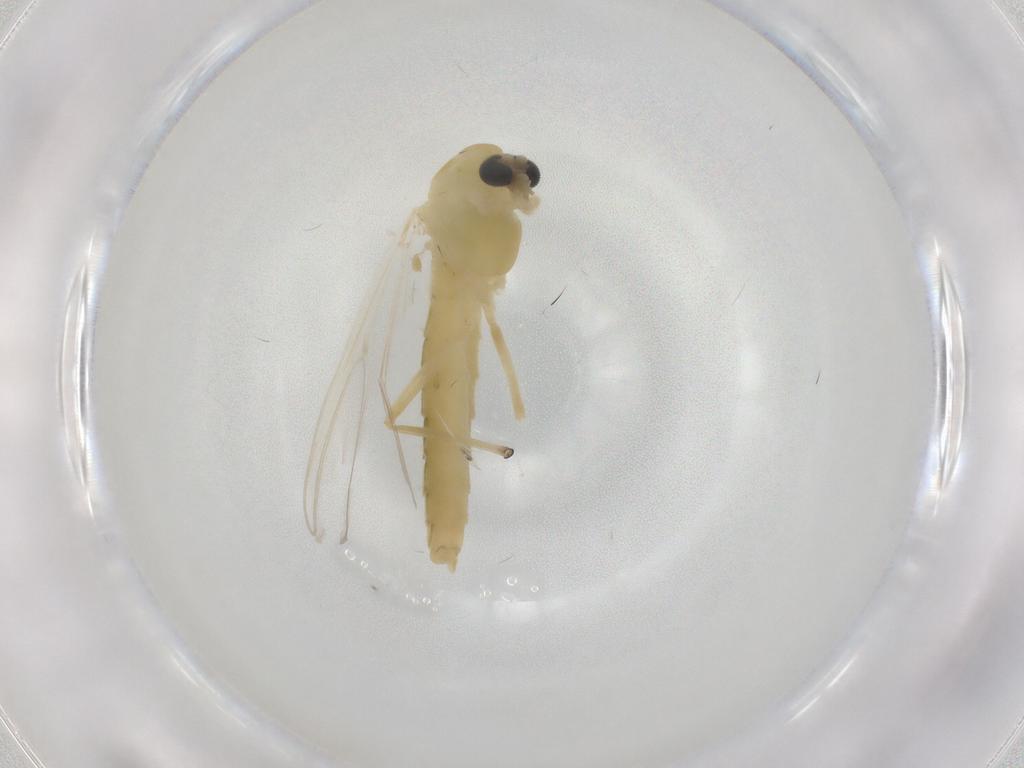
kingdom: Animalia
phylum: Arthropoda
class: Insecta
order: Diptera
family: Chironomidae
